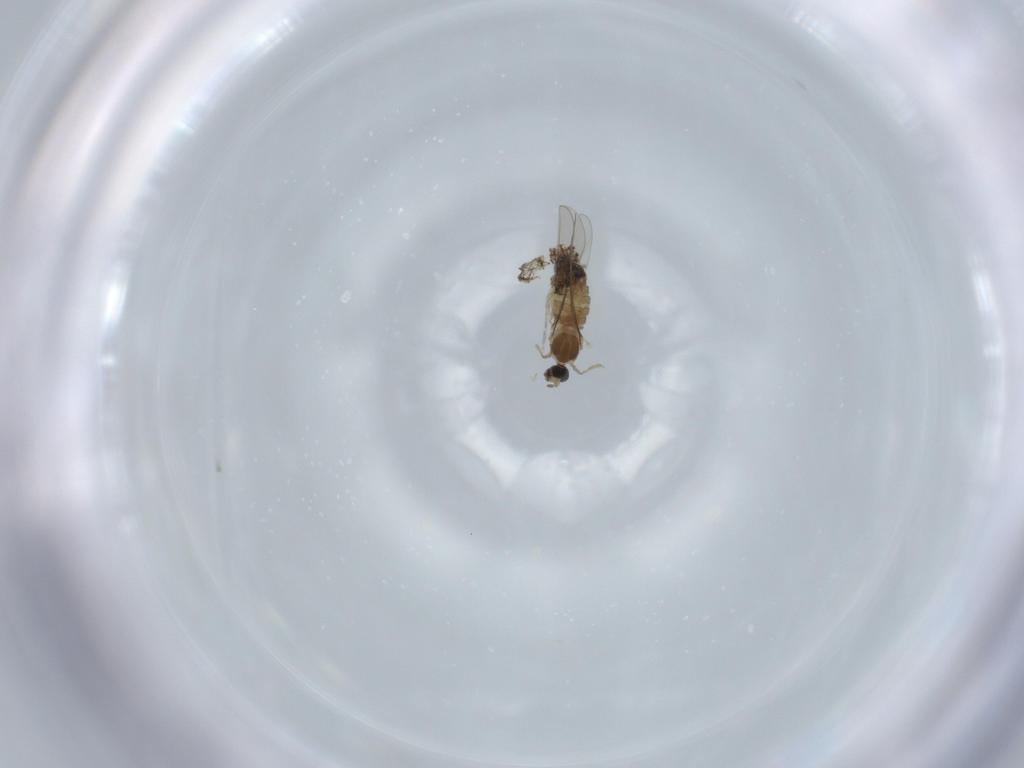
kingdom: Animalia
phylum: Arthropoda
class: Insecta
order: Diptera
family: Cecidomyiidae
